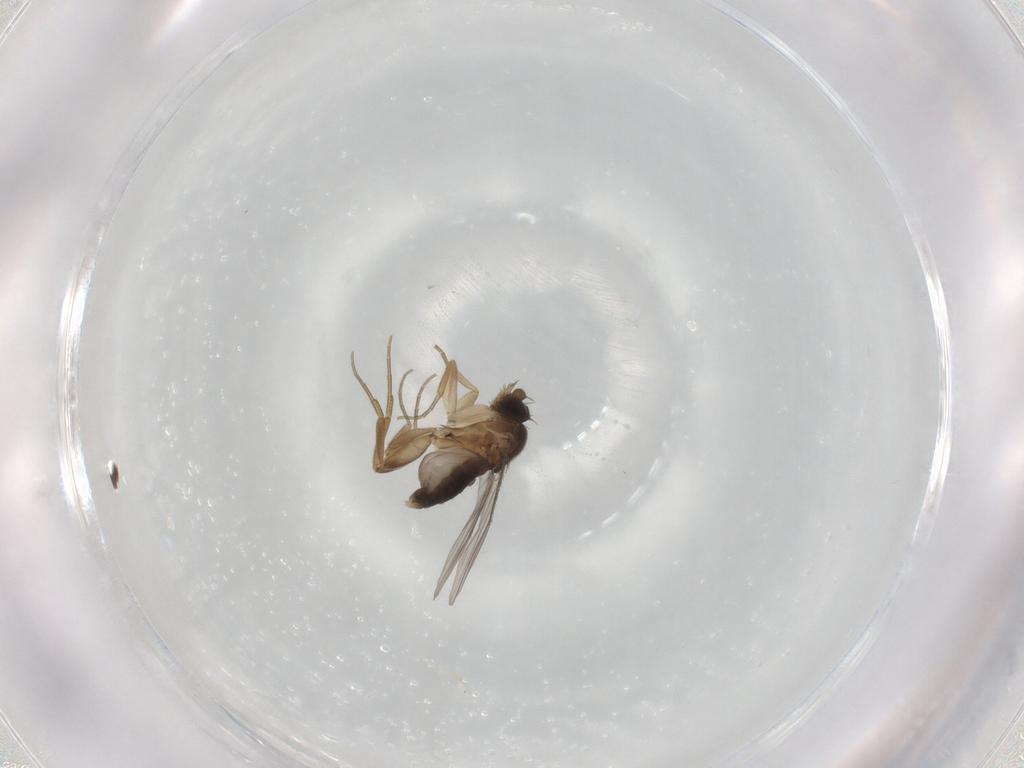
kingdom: Animalia
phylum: Arthropoda
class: Insecta
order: Diptera
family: Phoridae
